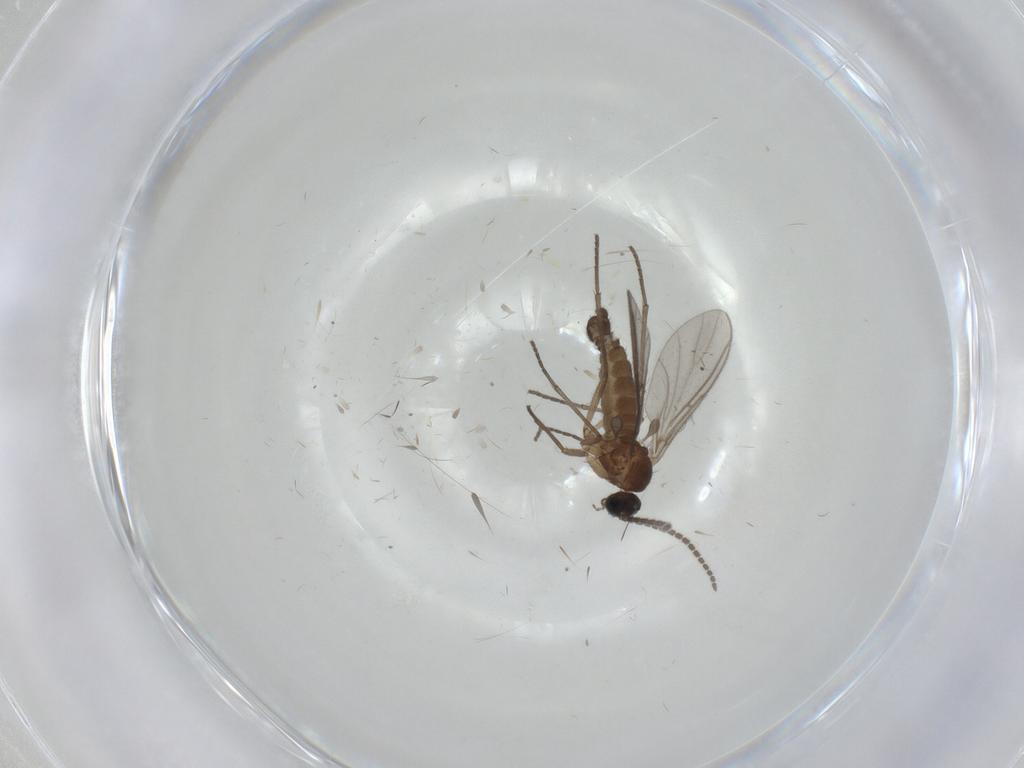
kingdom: Animalia
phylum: Arthropoda
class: Insecta
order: Diptera
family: Sciaridae
